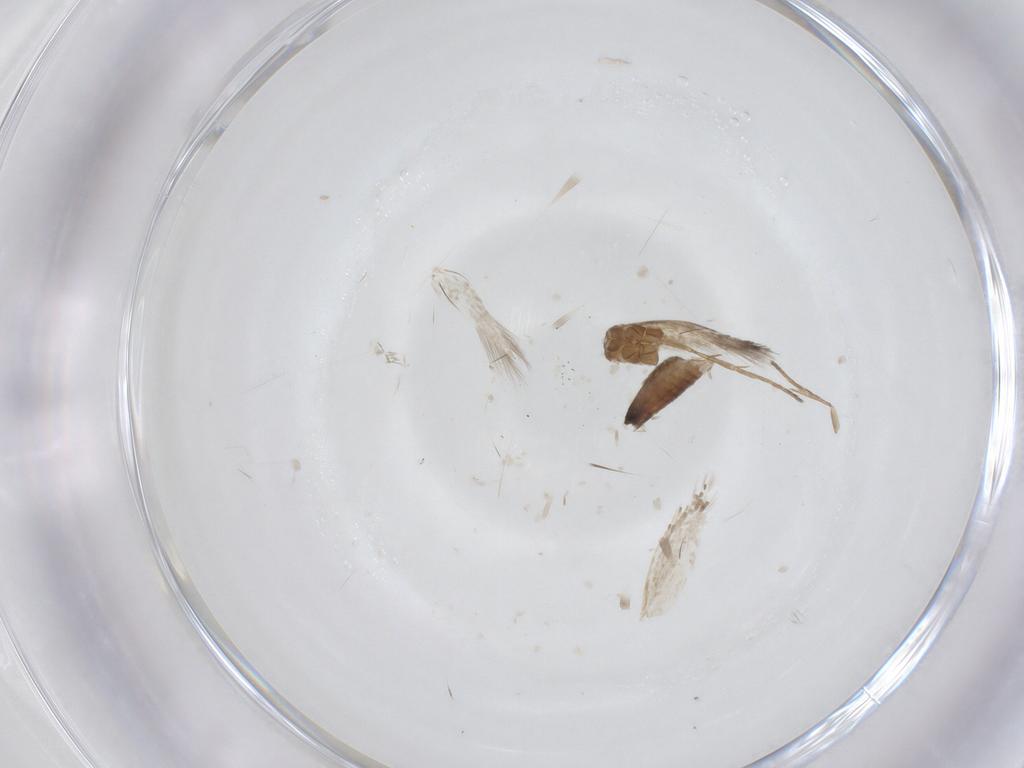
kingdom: Animalia
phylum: Arthropoda
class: Insecta
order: Lepidoptera
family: Heliozelidae
